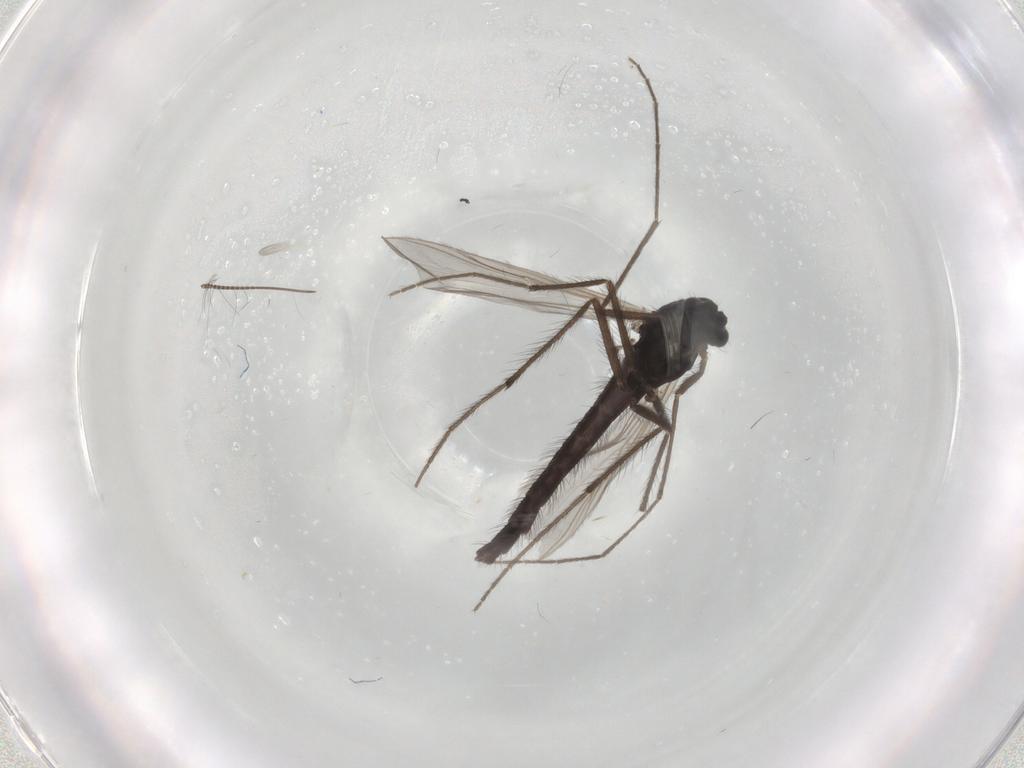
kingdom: Animalia
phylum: Arthropoda
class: Insecta
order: Diptera
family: Chironomidae
